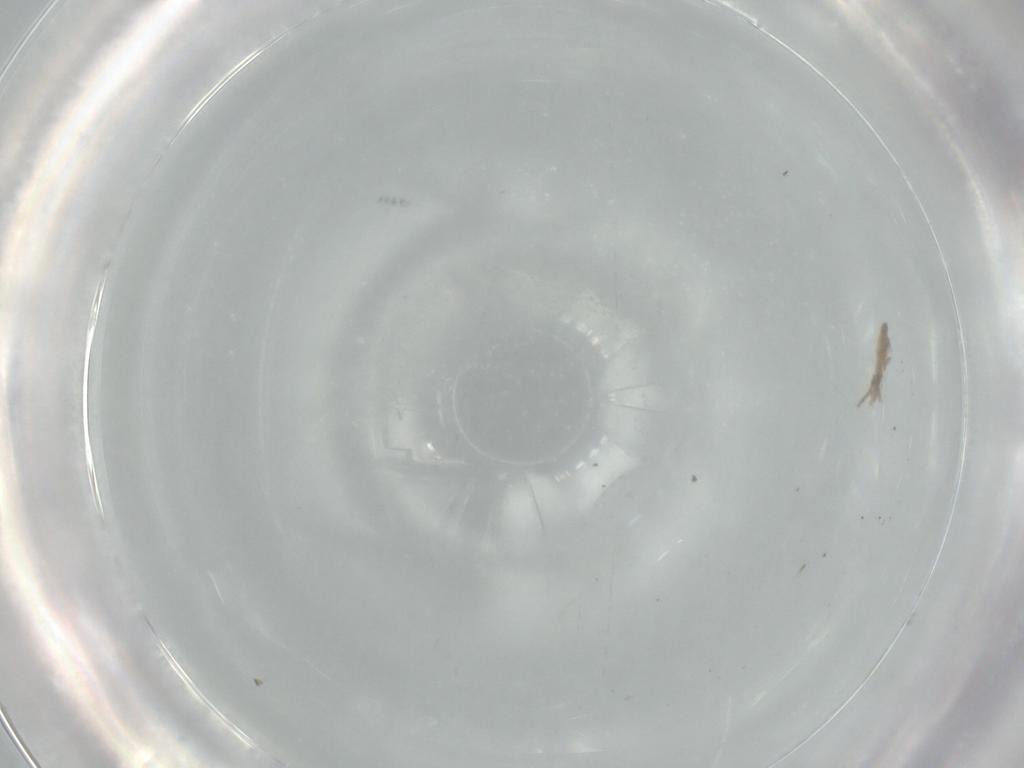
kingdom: Animalia
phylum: Arthropoda
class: Insecta
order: Diptera
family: Cecidomyiidae
